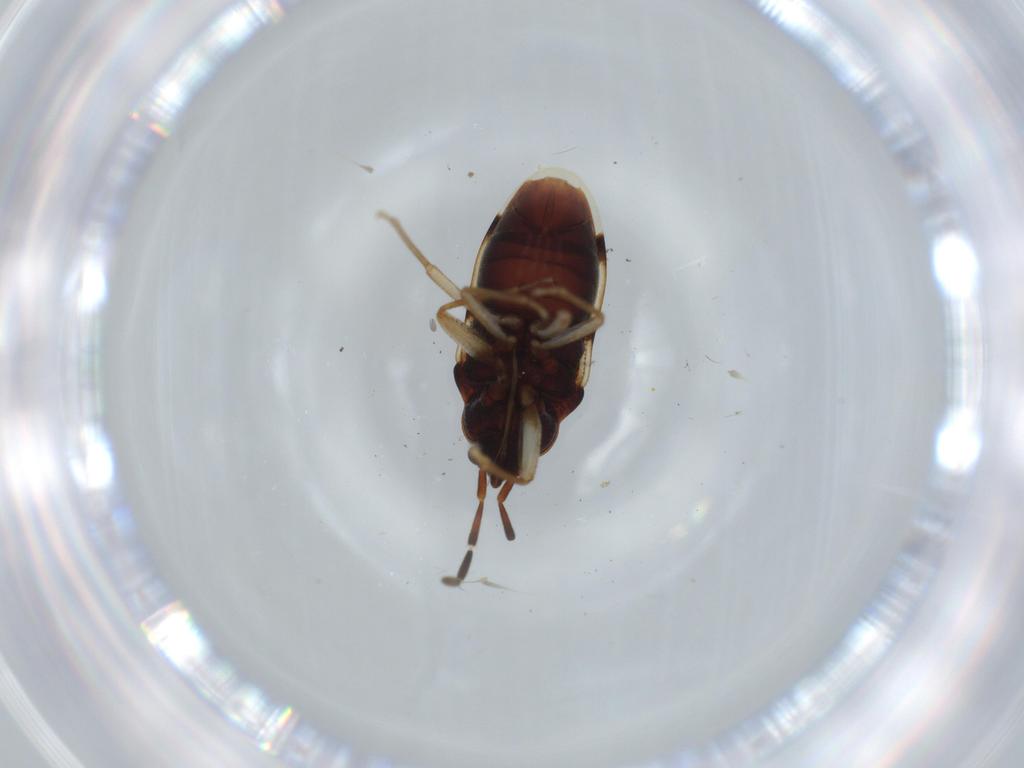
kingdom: Animalia
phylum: Arthropoda
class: Insecta
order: Hemiptera
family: Rhyparochromidae
